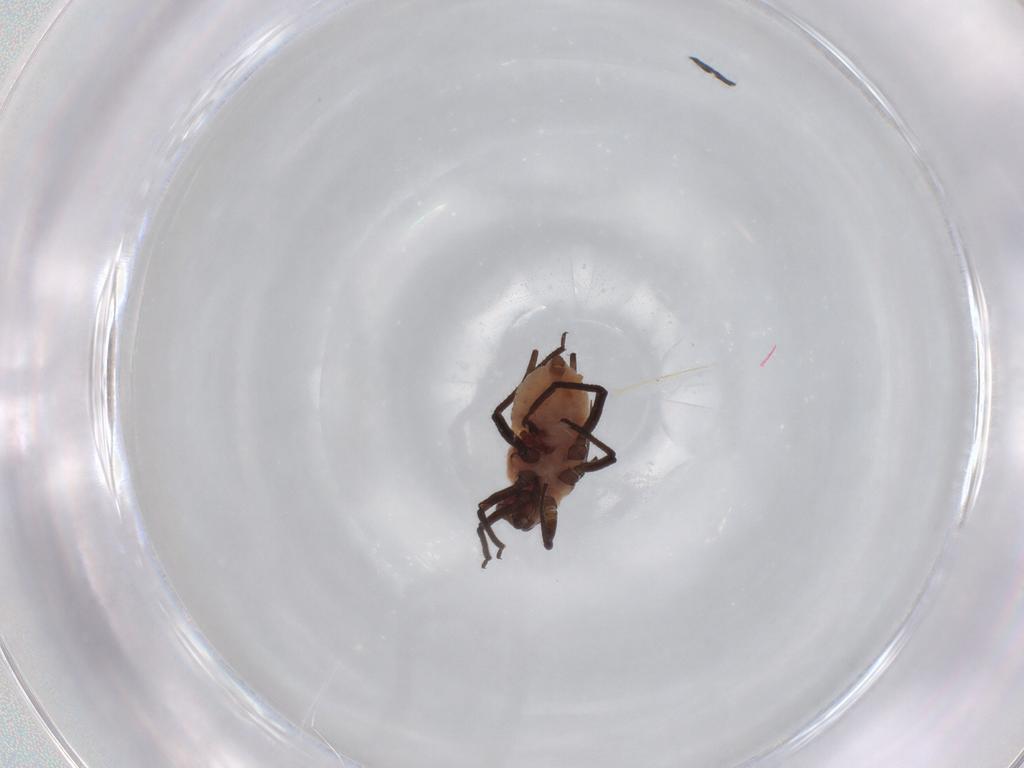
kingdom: Animalia
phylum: Arthropoda
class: Insecta
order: Hemiptera
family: Aphididae
